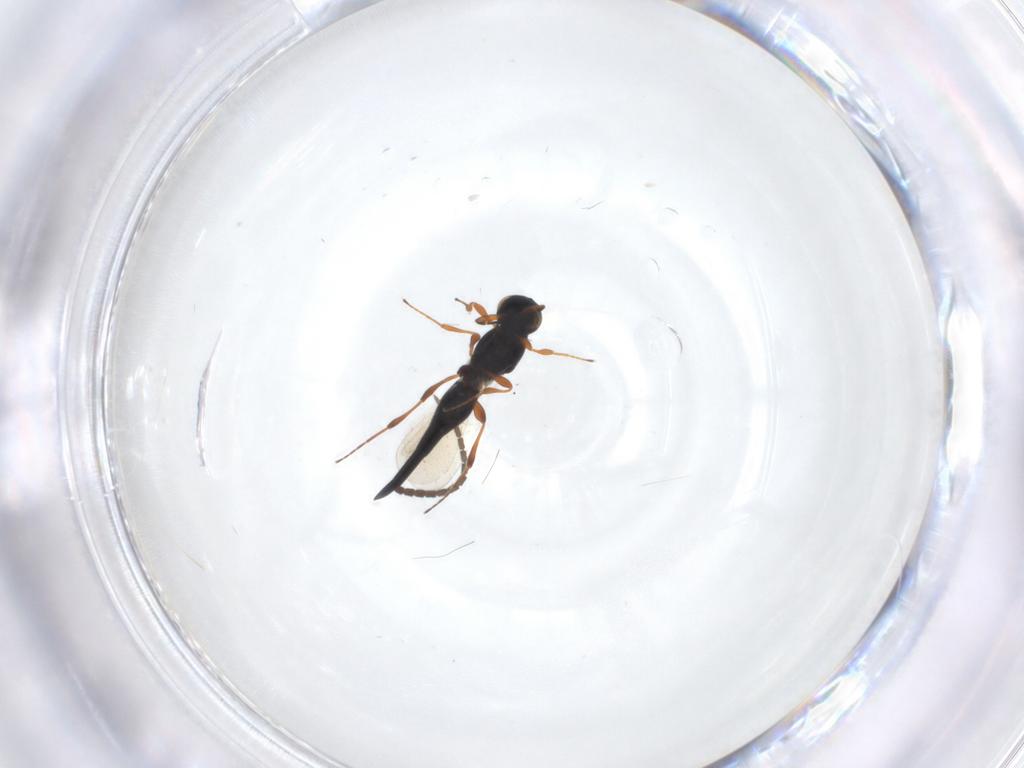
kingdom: Animalia
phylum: Arthropoda
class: Insecta
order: Hymenoptera
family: Platygastridae
